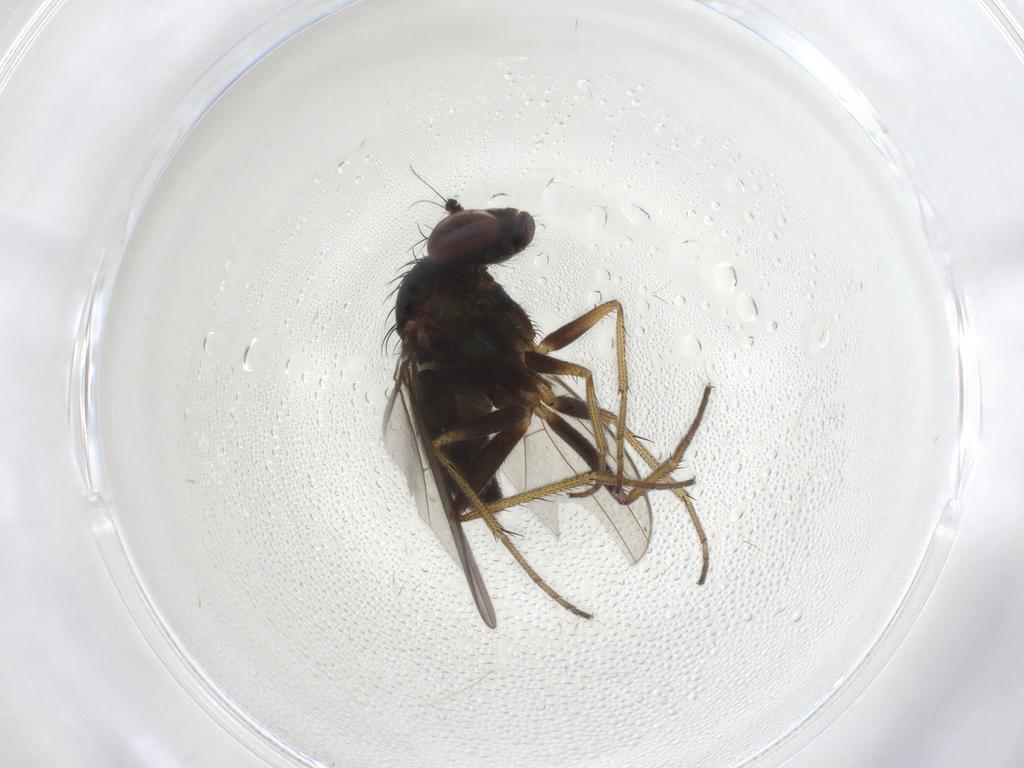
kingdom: Animalia
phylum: Arthropoda
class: Insecta
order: Diptera
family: Dolichopodidae
